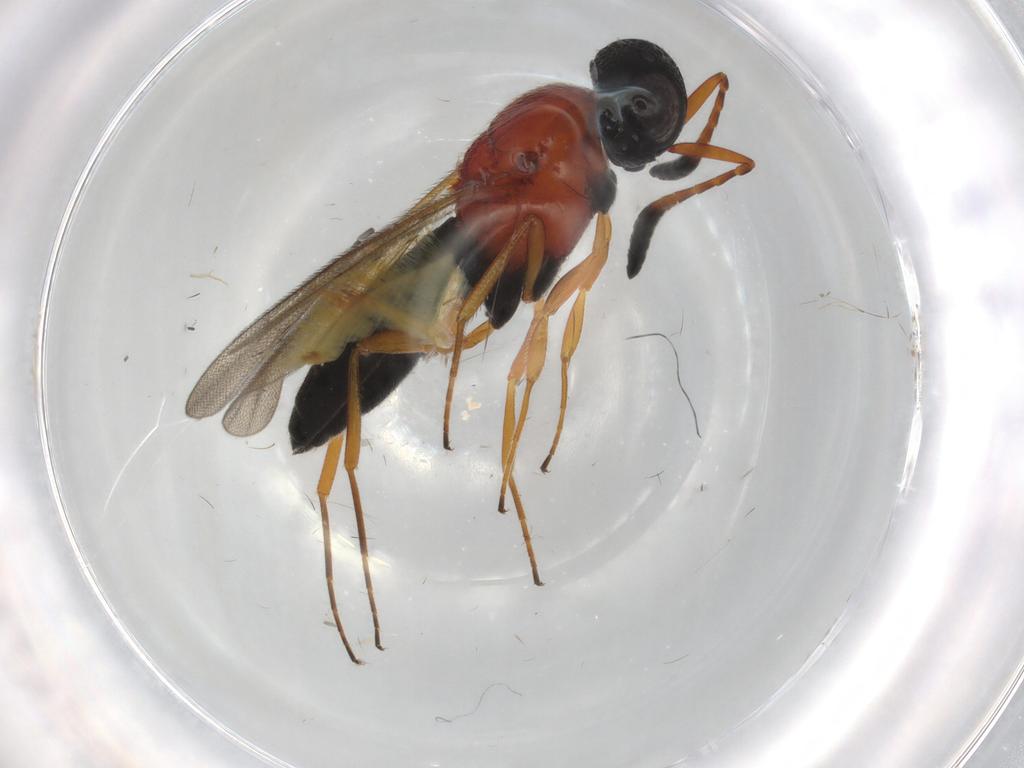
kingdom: Animalia
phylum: Arthropoda
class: Insecta
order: Hymenoptera
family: Scelionidae
